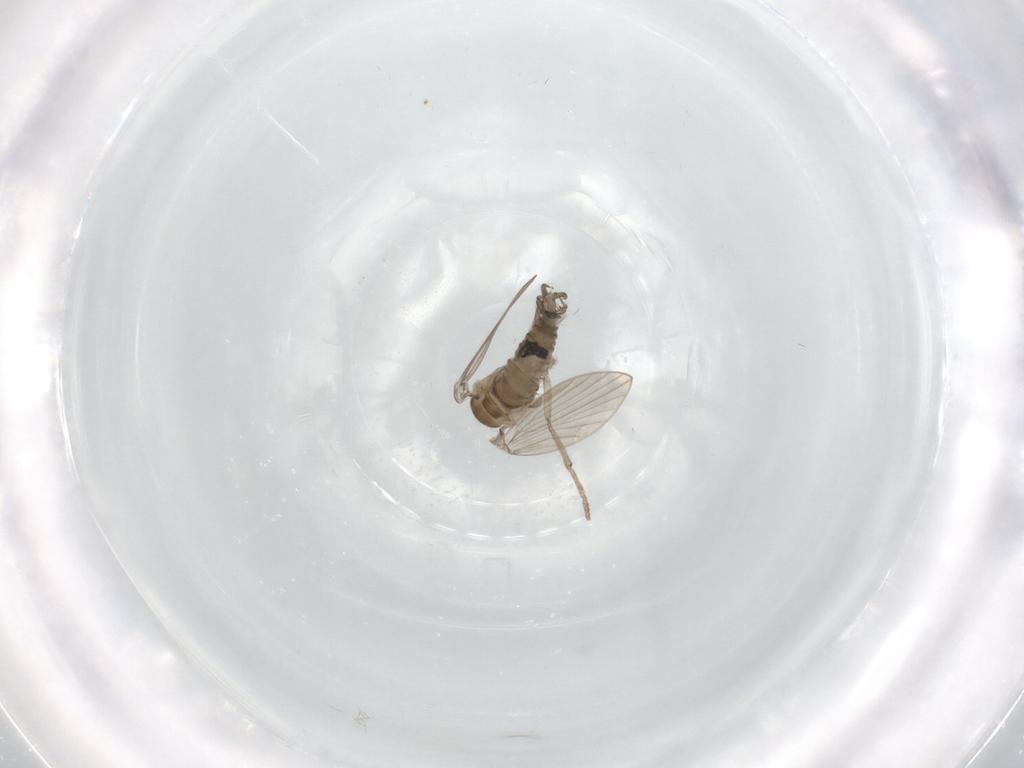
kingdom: Animalia
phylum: Arthropoda
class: Insecta
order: Diptera
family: Psychodidae
